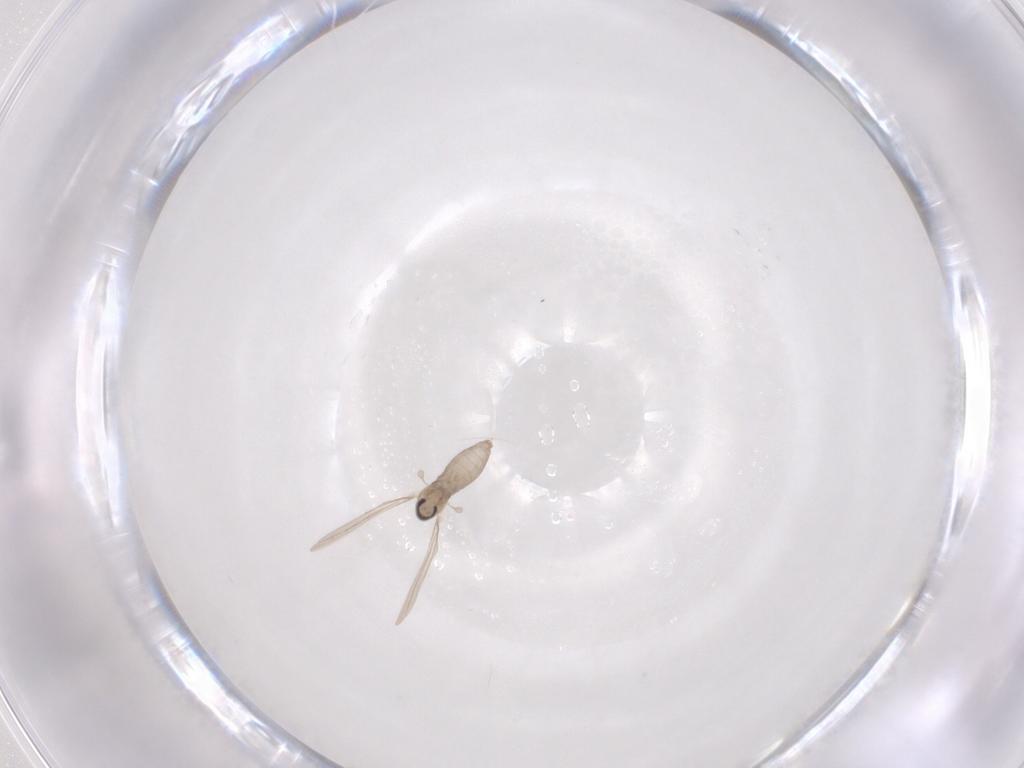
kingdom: Animalia
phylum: Arthropoda
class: Insecta
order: Diptera
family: Cecidomyiidae
